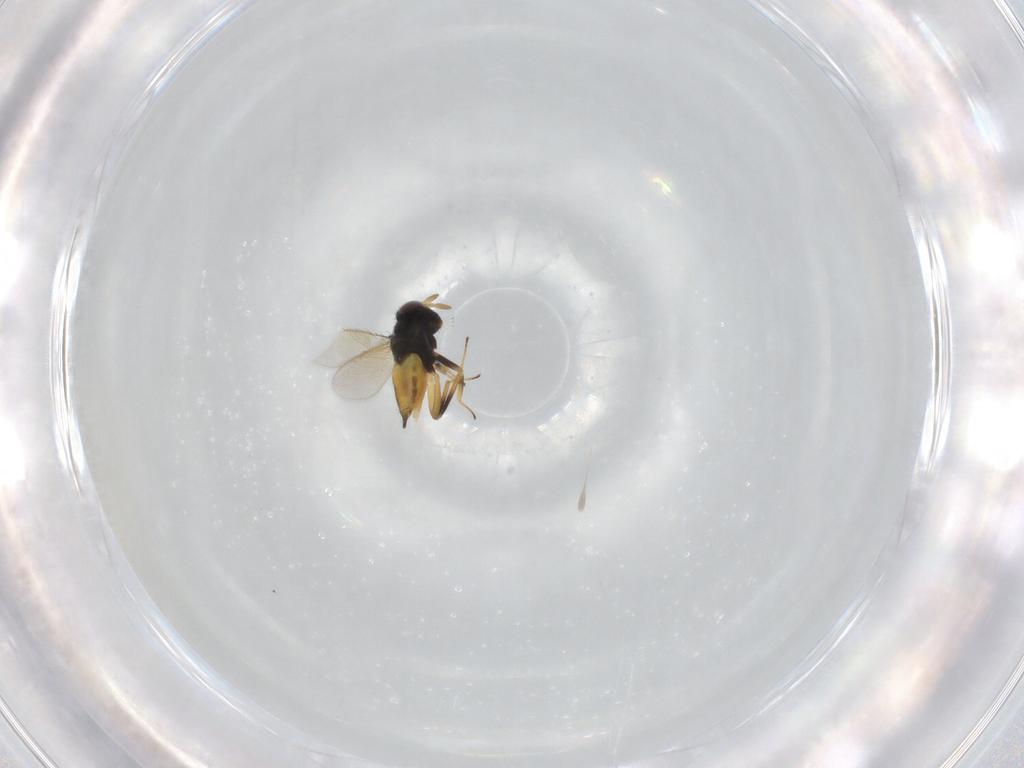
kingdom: Animalia
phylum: Arthropoda
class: Insecta
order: Hymenoptera
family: Aphelinidae
